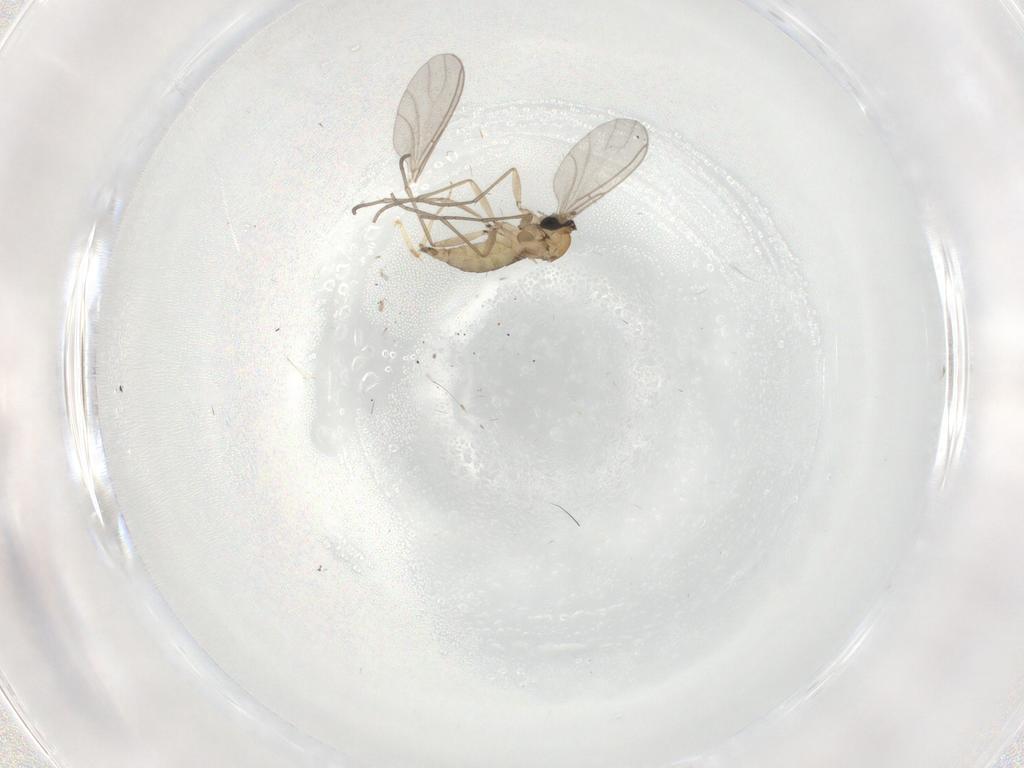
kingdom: Animalia
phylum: Arthropoda
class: Insecta
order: Diptera
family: Sciaridae
